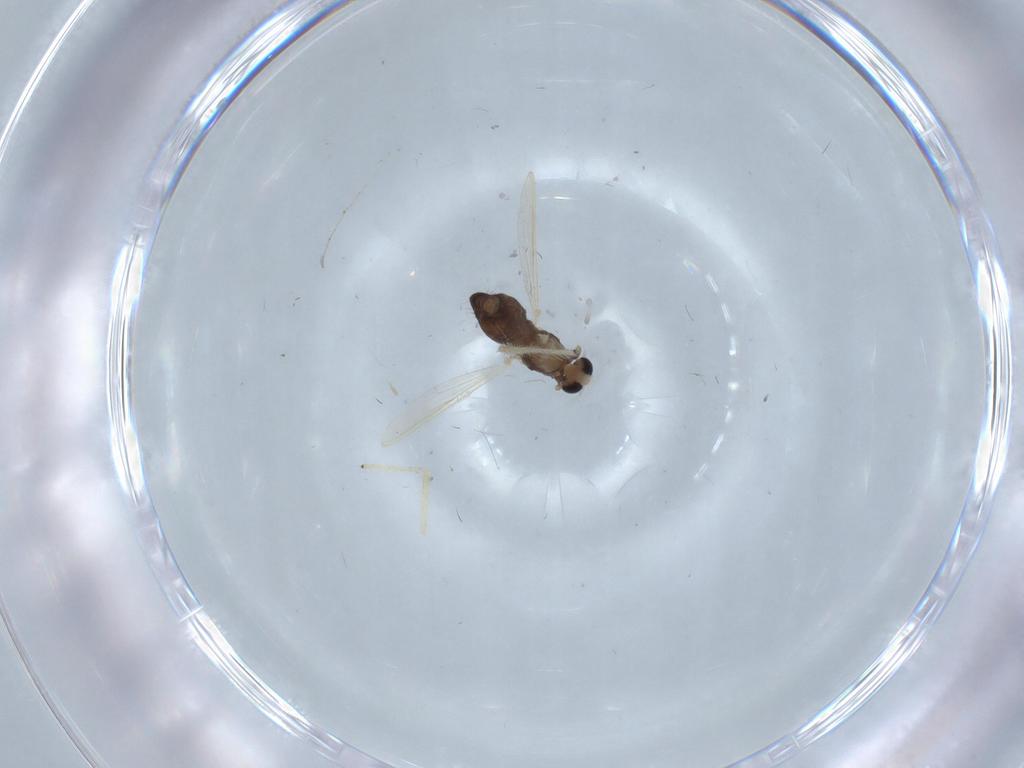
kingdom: Animalia
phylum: Arthropoda
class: Insecta
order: Diptera
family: Chironomidae
